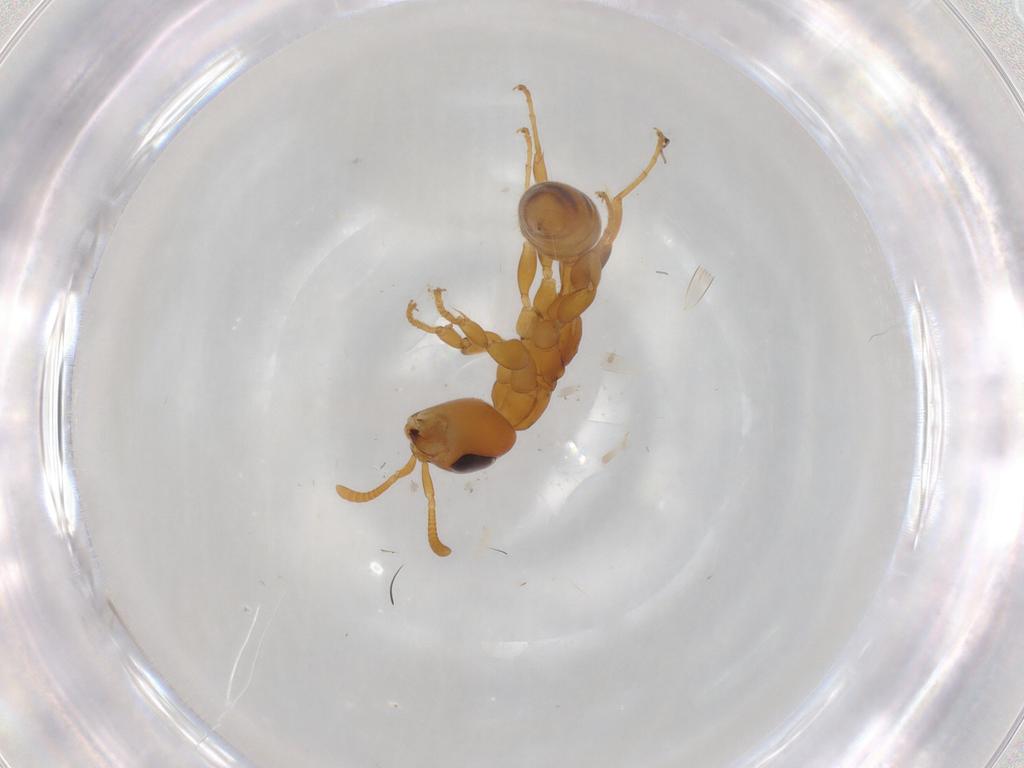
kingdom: Animalia
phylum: Arthropoda
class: Insecta
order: Hymenoptera
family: Formicidae
